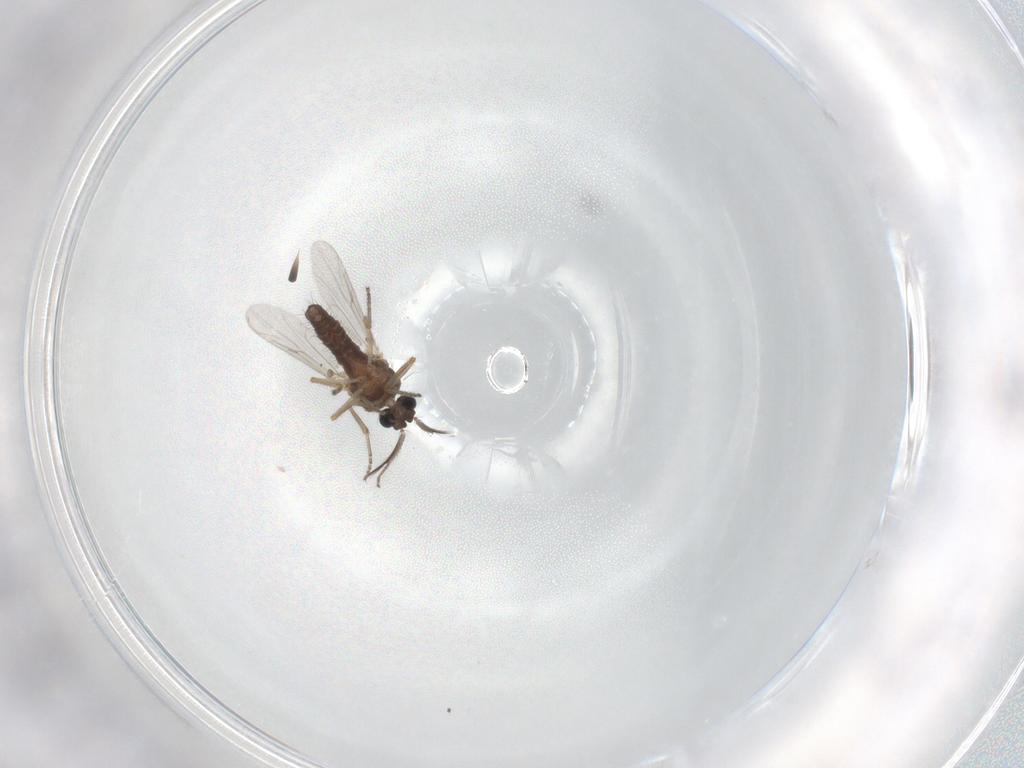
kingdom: Animalia
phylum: Arthropoda
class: Insecta
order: Diptera
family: Ceratopogonidae
